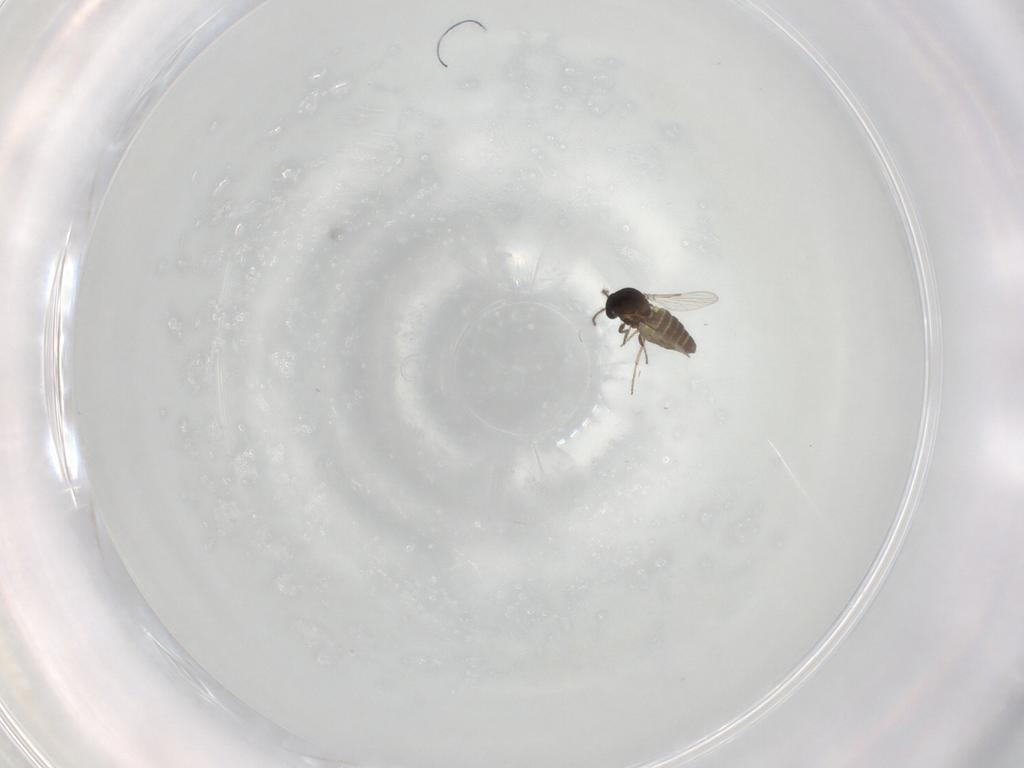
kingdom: Animalia
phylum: Arthropoda
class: Insecta
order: Diptera
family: Ceratopogonidae
